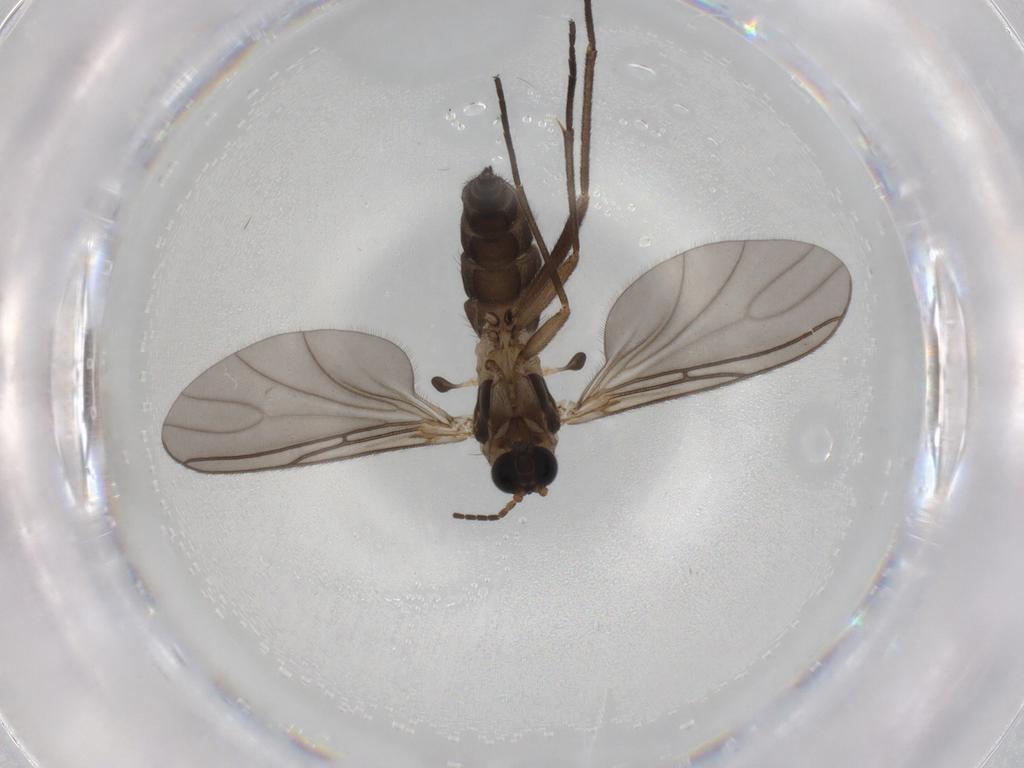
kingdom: Animalia
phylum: Arthropoda
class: Insecta
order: Diptera
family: Sciaridae
